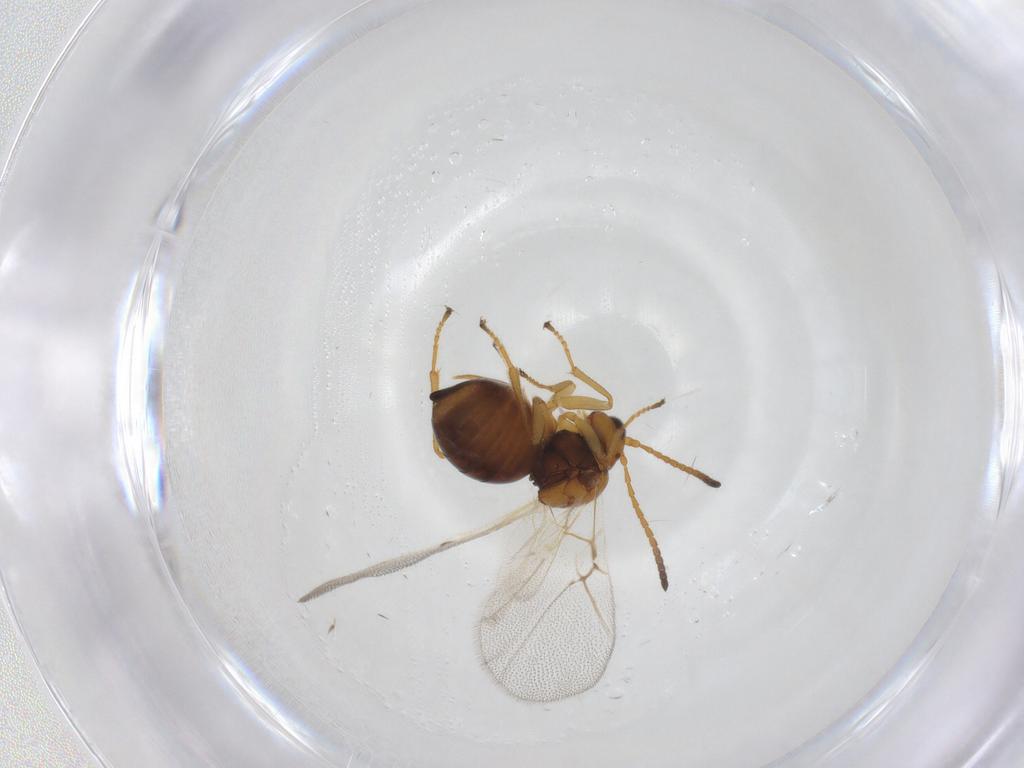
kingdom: Animalia
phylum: Arthropoda
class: Insecta
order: Hymenoptera
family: Cynipidae
